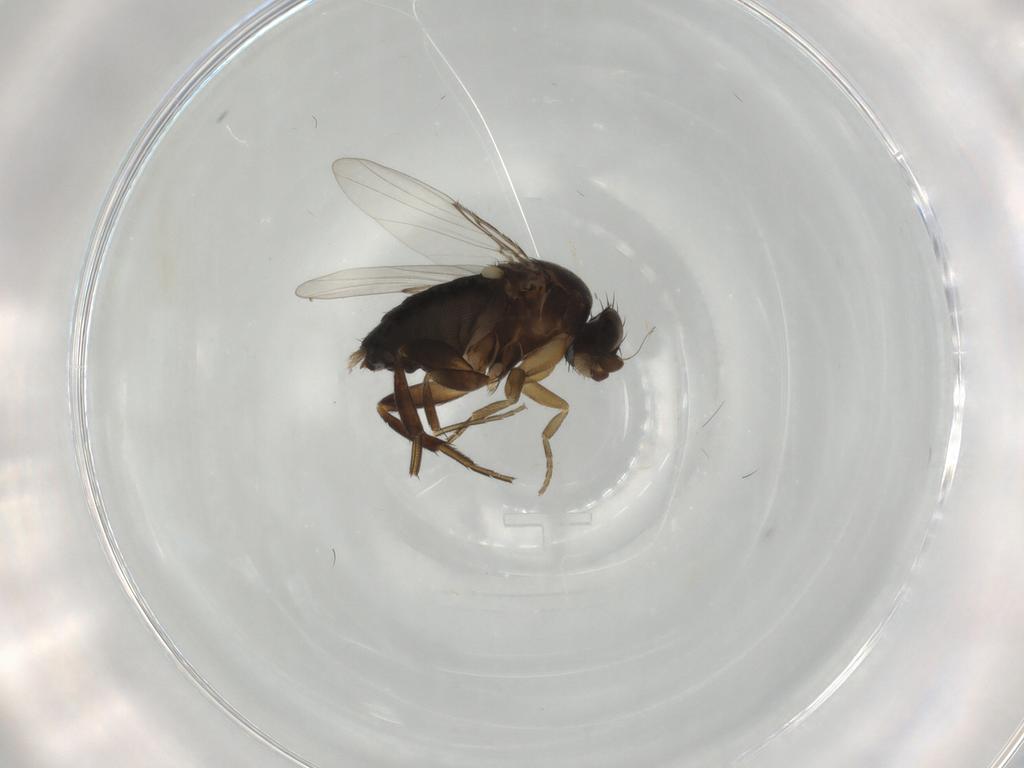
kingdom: Animalia
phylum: Arthropoda
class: Insecta
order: Diptera
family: Phoridae
